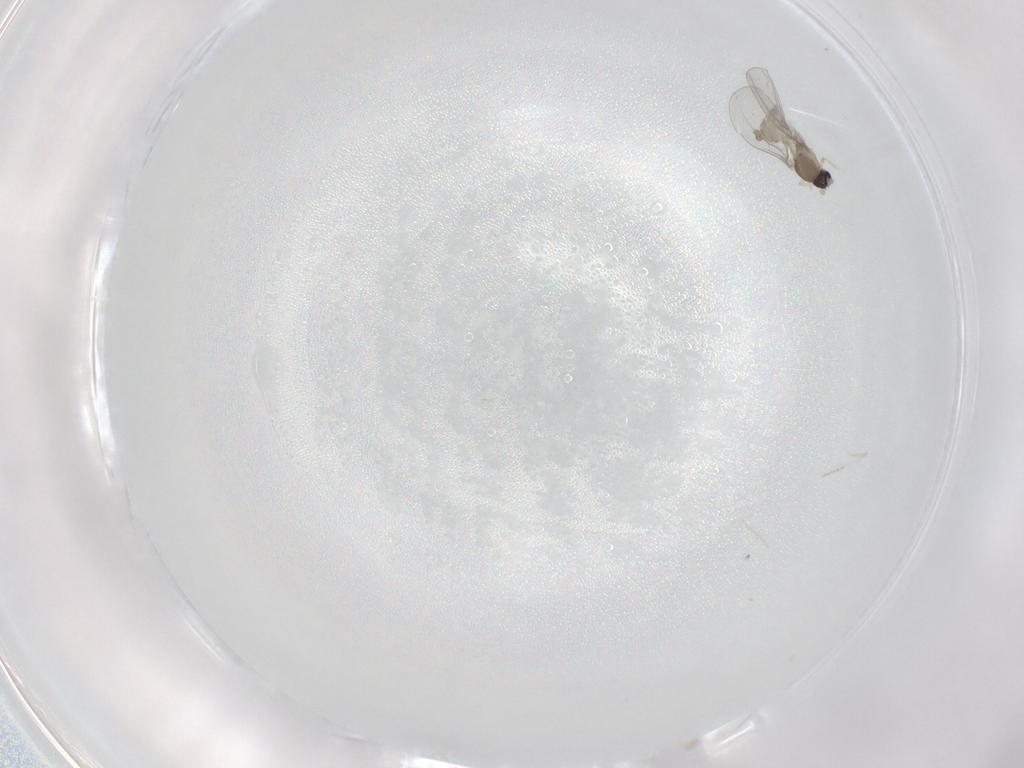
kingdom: Animalia
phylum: Arthropoda
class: Insecta
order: Diptera
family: Cecidomyiidae
